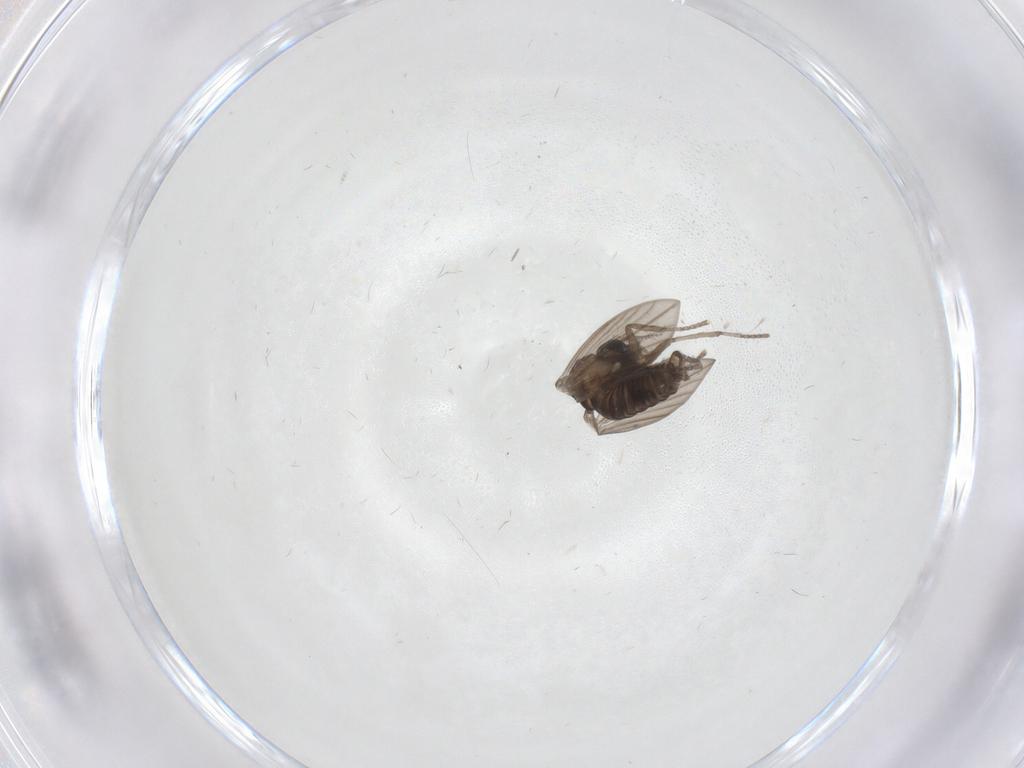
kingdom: Animalia
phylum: Arthropoda
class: Insecta
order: Diptera
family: Psychodidae
